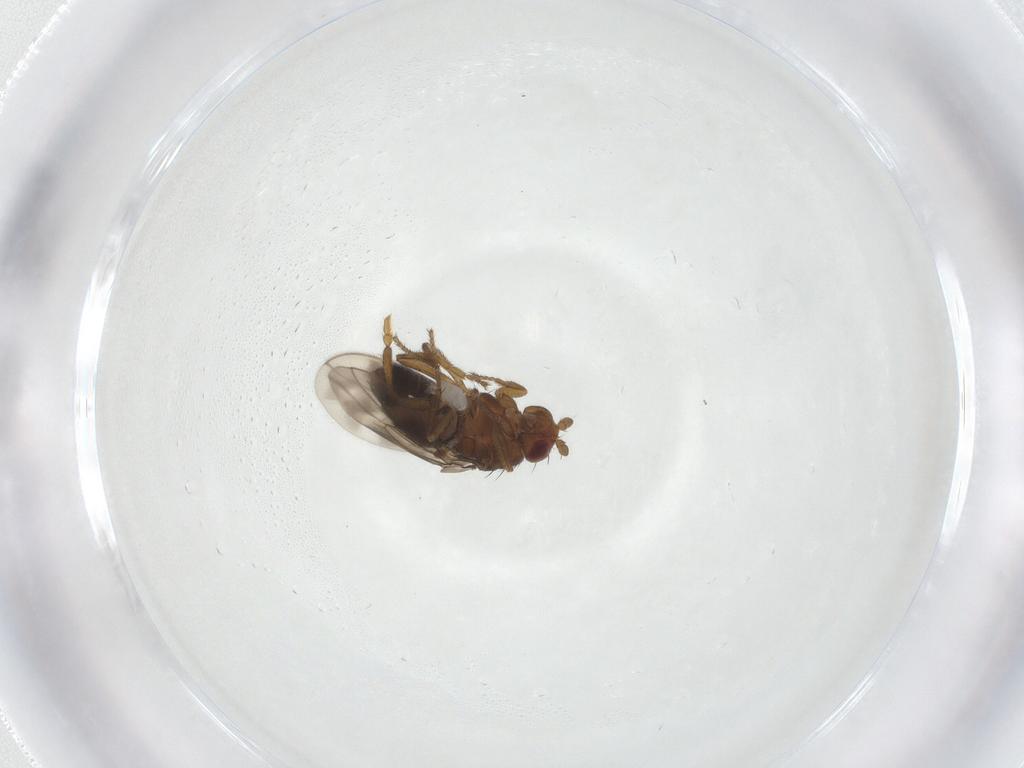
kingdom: Animalia
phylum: Arthropoda
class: Insecta
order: Diptera
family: Sphaeroceridae
